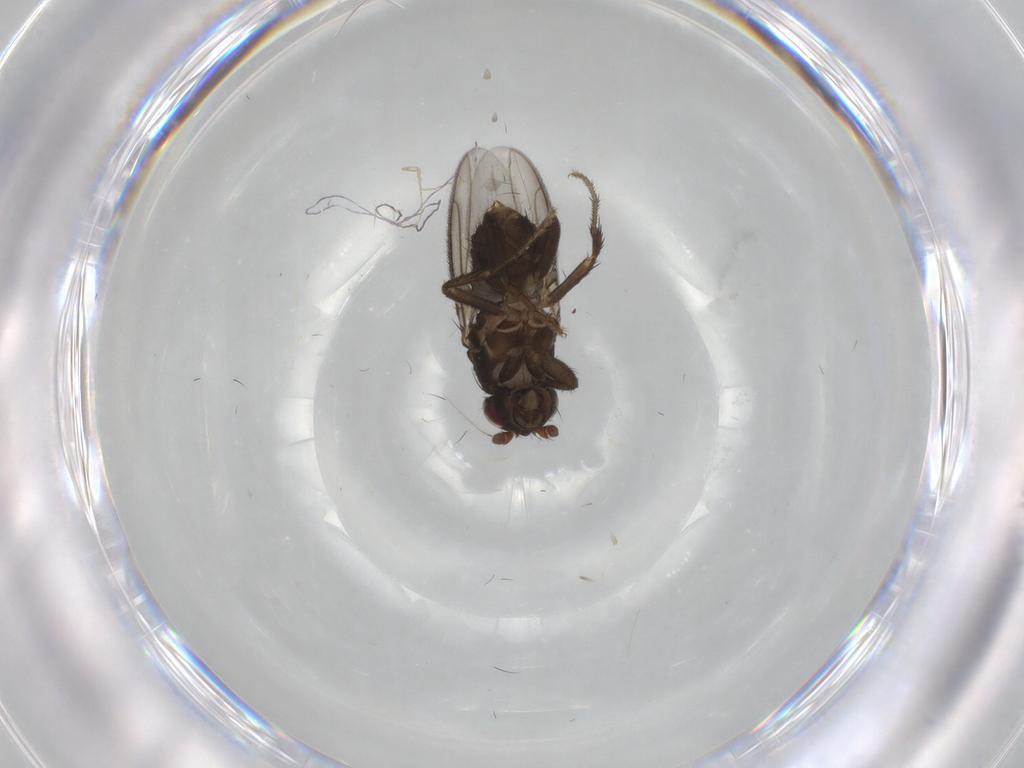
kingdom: Animalia
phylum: Arthropoda
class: Insecta
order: Diptera
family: Sphaeroceridae
